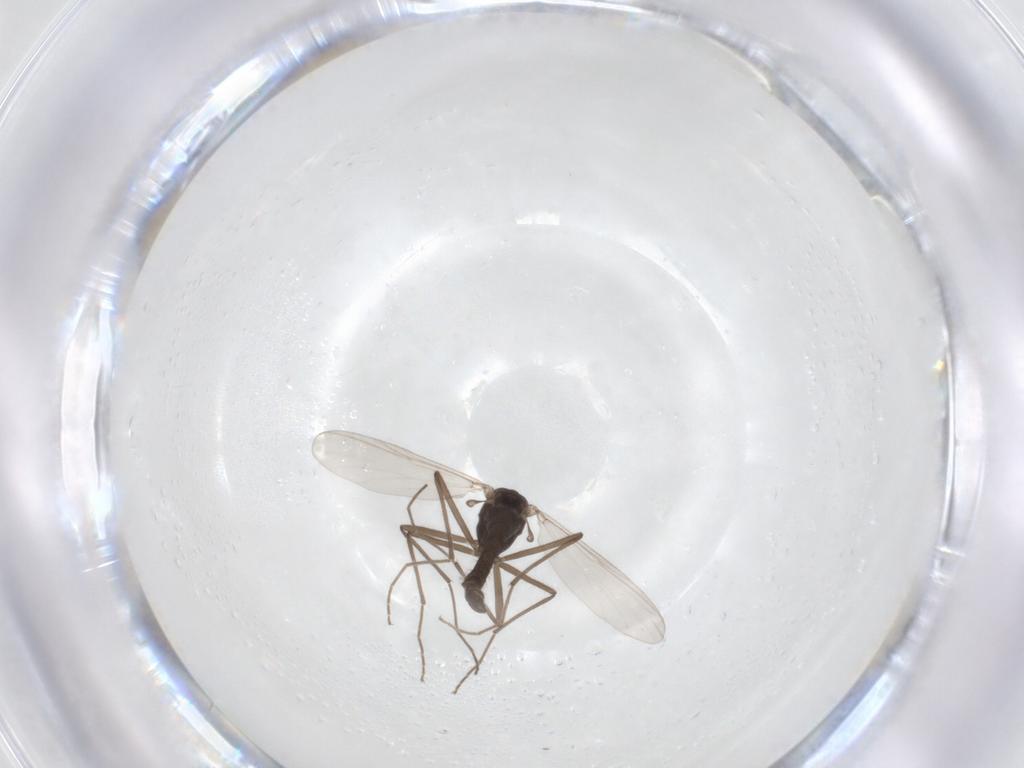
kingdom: Animalia
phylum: Arthropoda
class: Insecta
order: Diptera
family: Chironomidae
